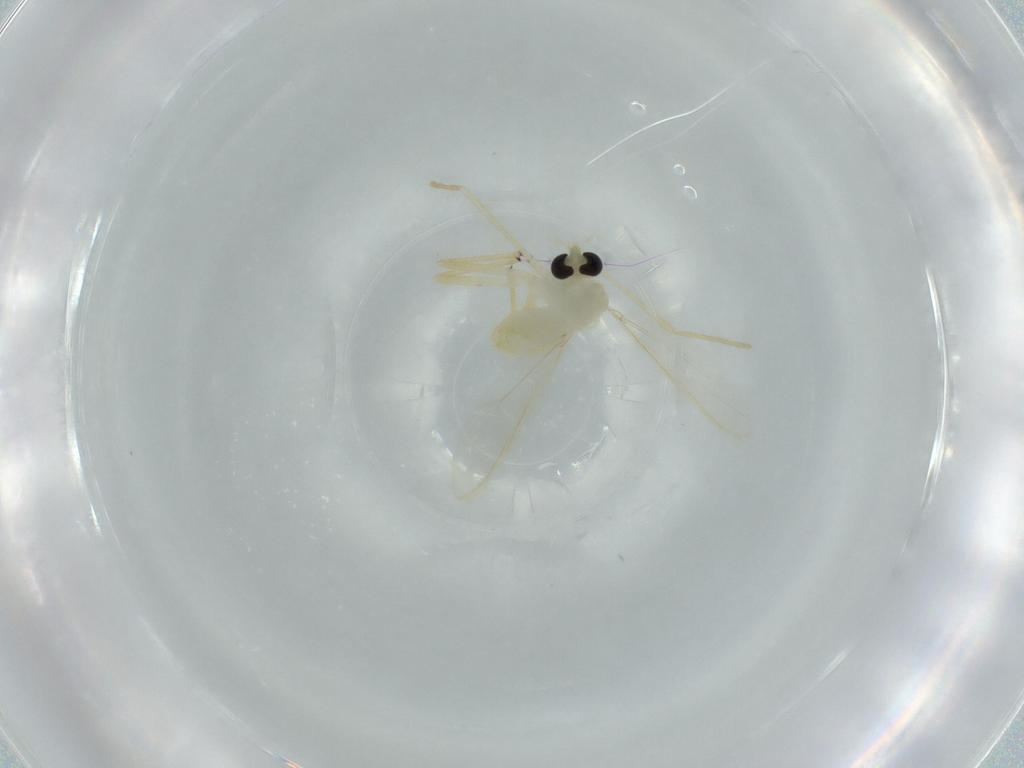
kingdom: Animalia
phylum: Arthropoda
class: Insecta
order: Diptera
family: Chironomidae
